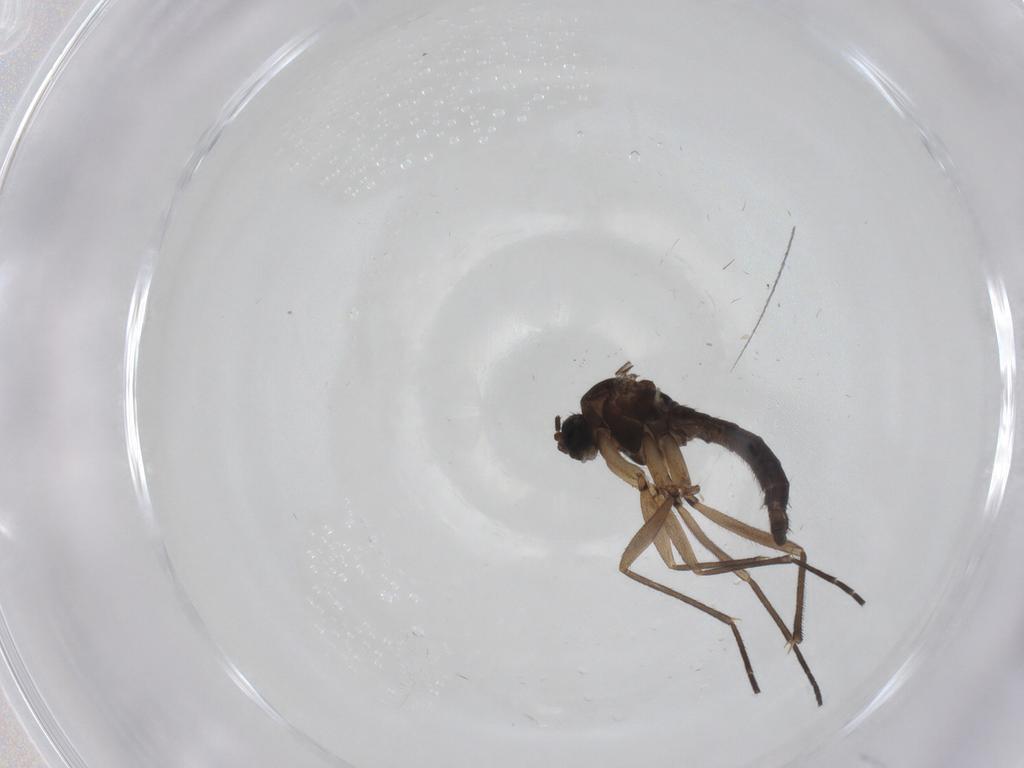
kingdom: Animalia
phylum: Arthropoda
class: Insecta
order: Diptera
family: Sciaridae
